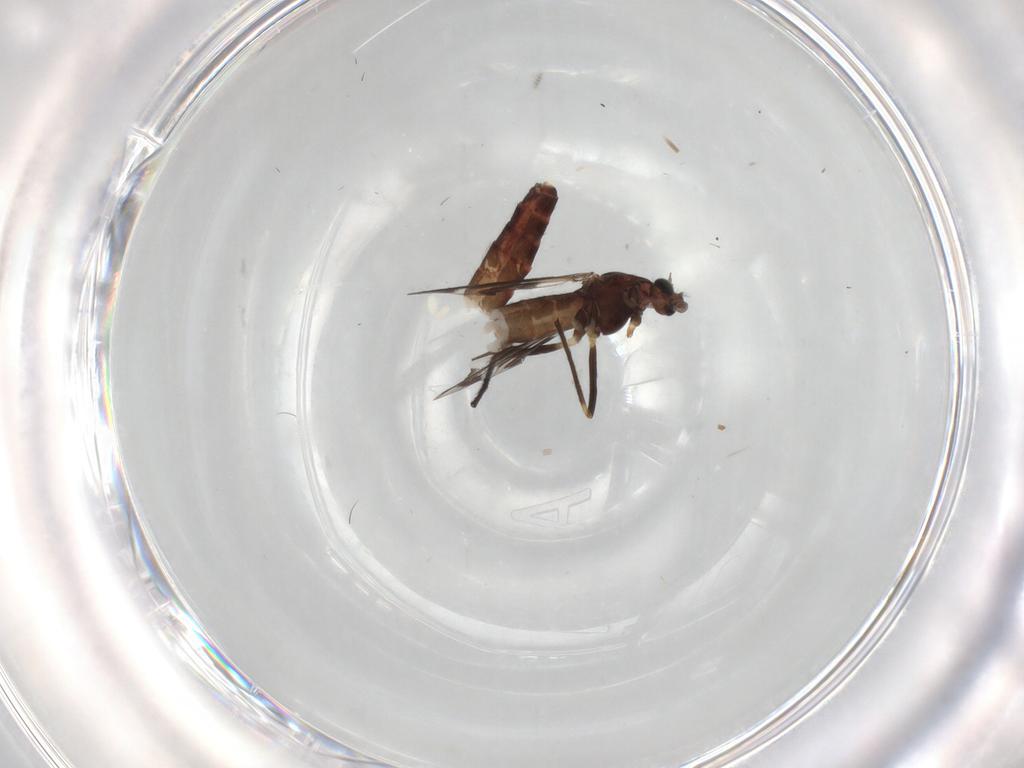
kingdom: Animalia
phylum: Arthropoda
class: Insecta
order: Diptera
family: Chironomidae
